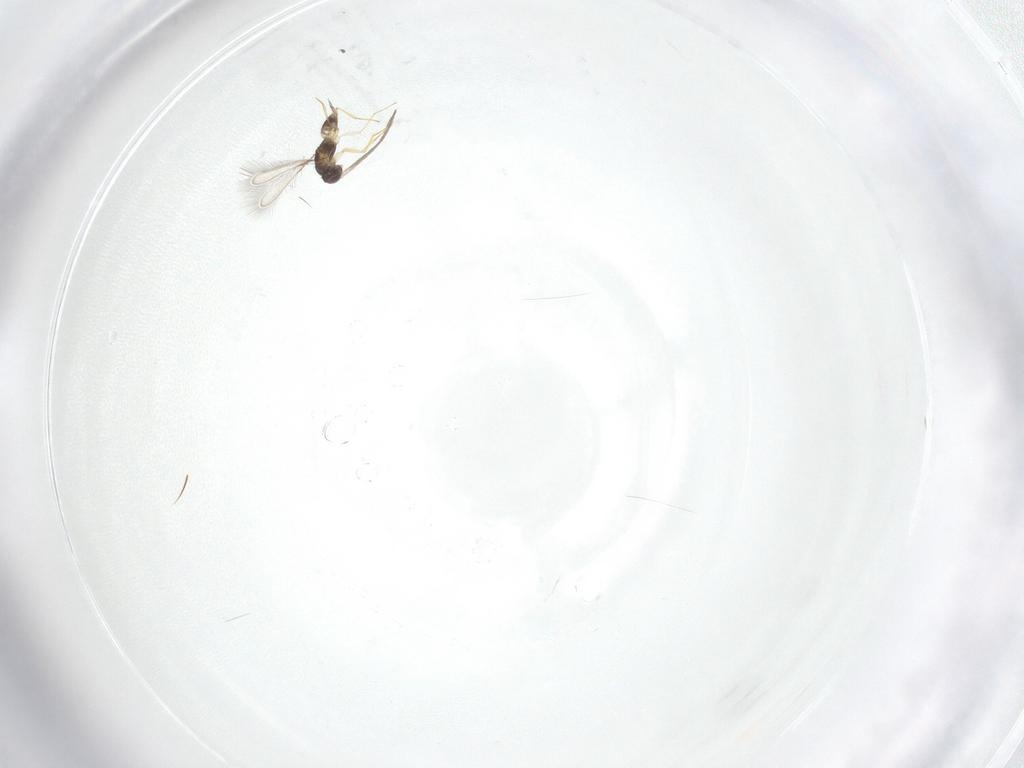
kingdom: Animalia
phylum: Arthropoda
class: Insecta
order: Hymenoptera
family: Mymaridae
